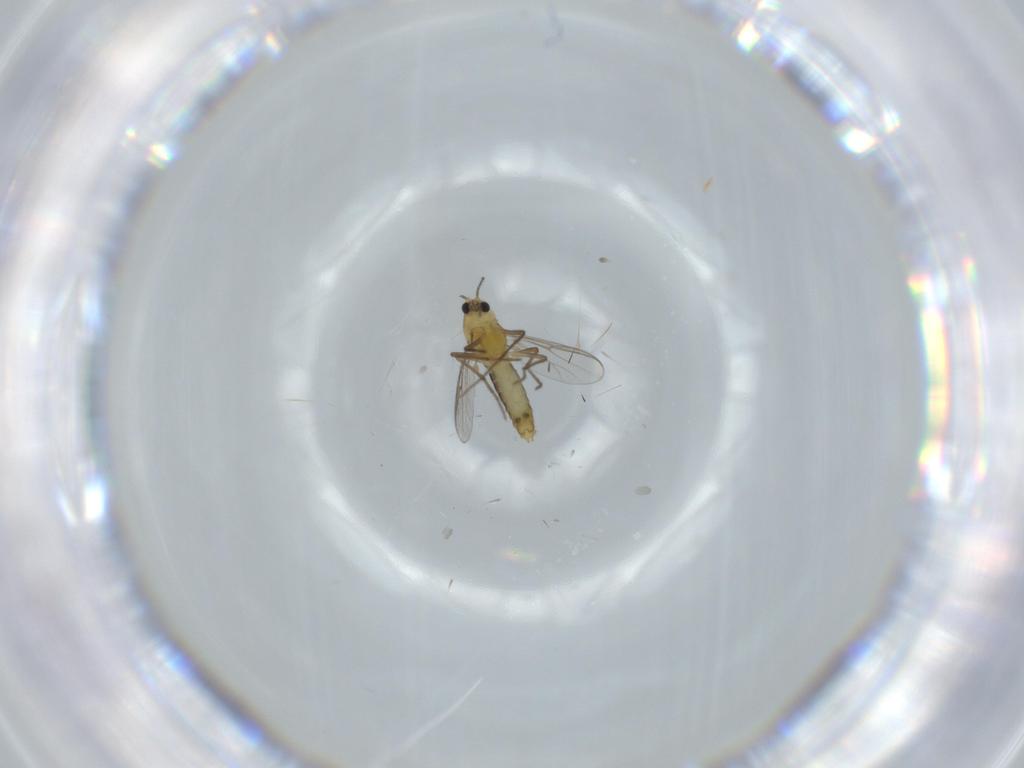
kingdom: Animalia
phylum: Arthropoda
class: Insecta
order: Diptera
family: Chironomidae
